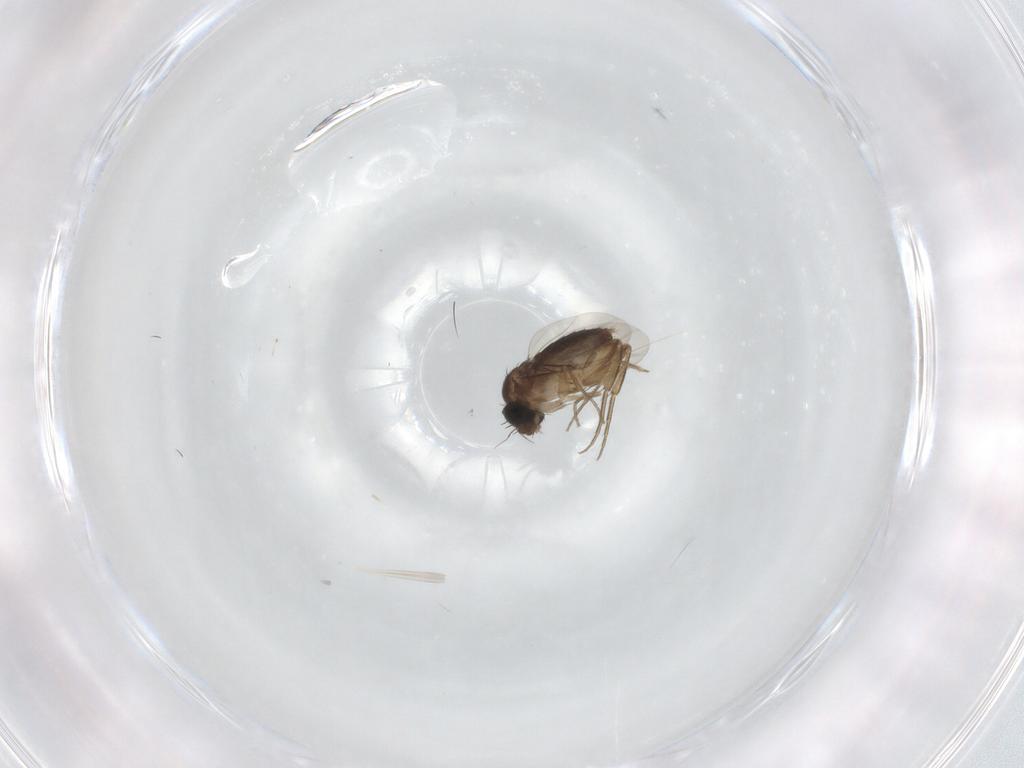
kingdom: Animalia
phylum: Arthropoda
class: Insecta
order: Diptera
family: Phoridae
